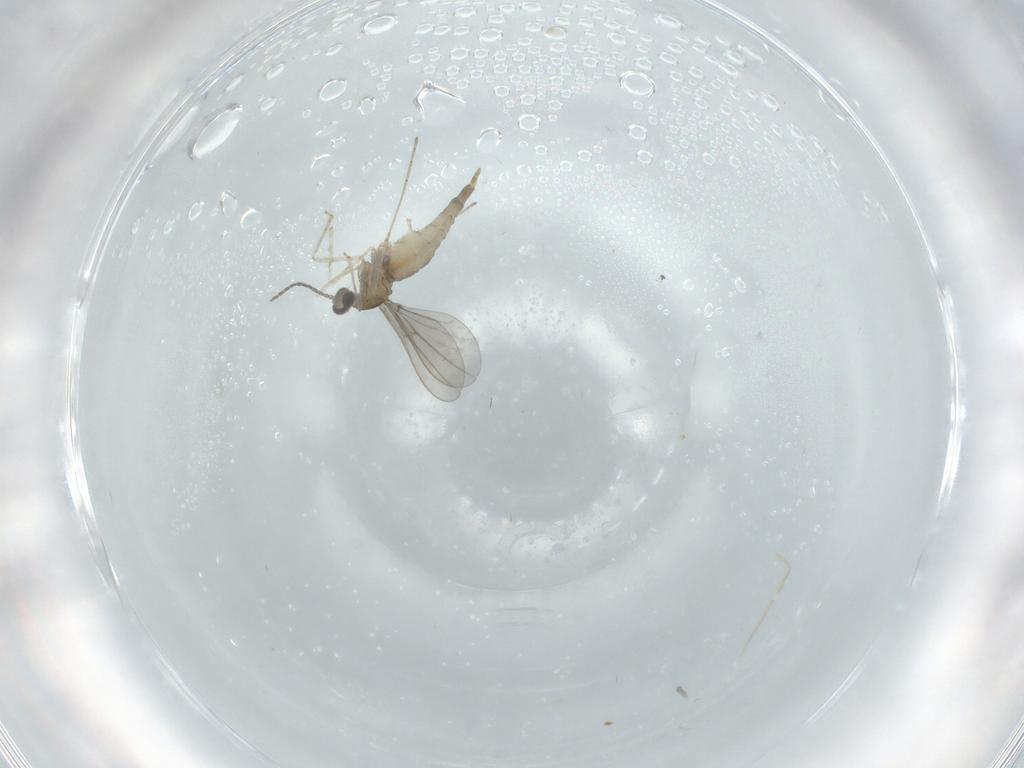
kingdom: Animalia
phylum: Arthropoda
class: Insecta
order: Diptera
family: Cecidomyiidae
